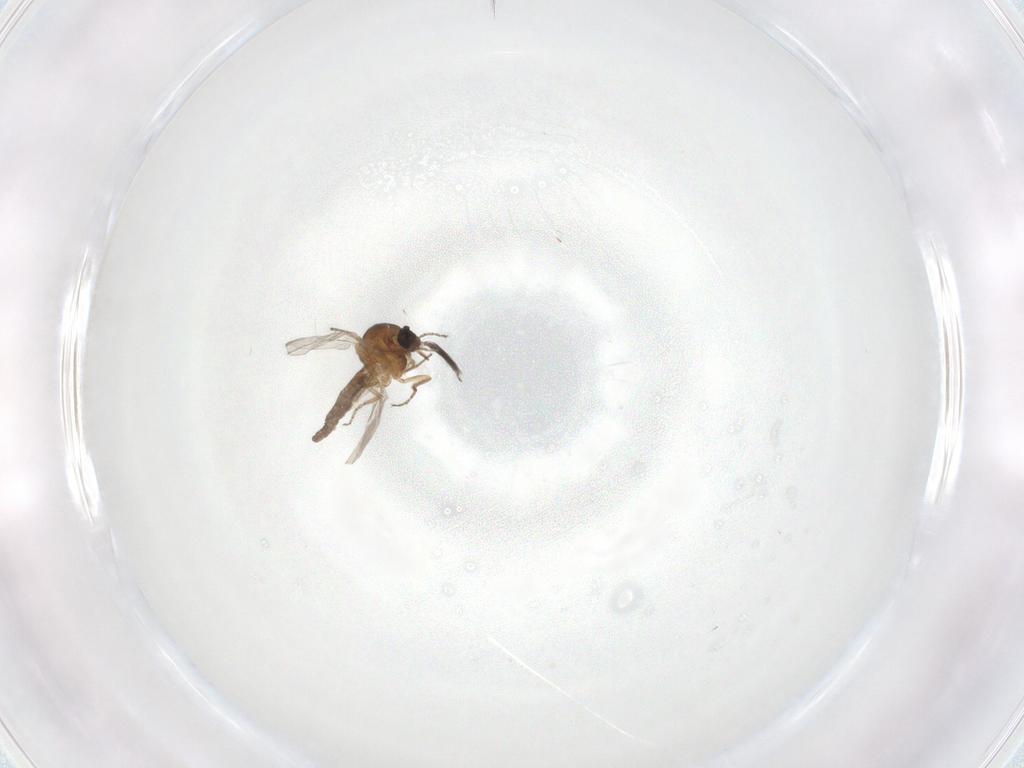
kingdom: Animalia
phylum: Arthropoda
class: Insecta
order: Diptera
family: Ceratopogonidae
